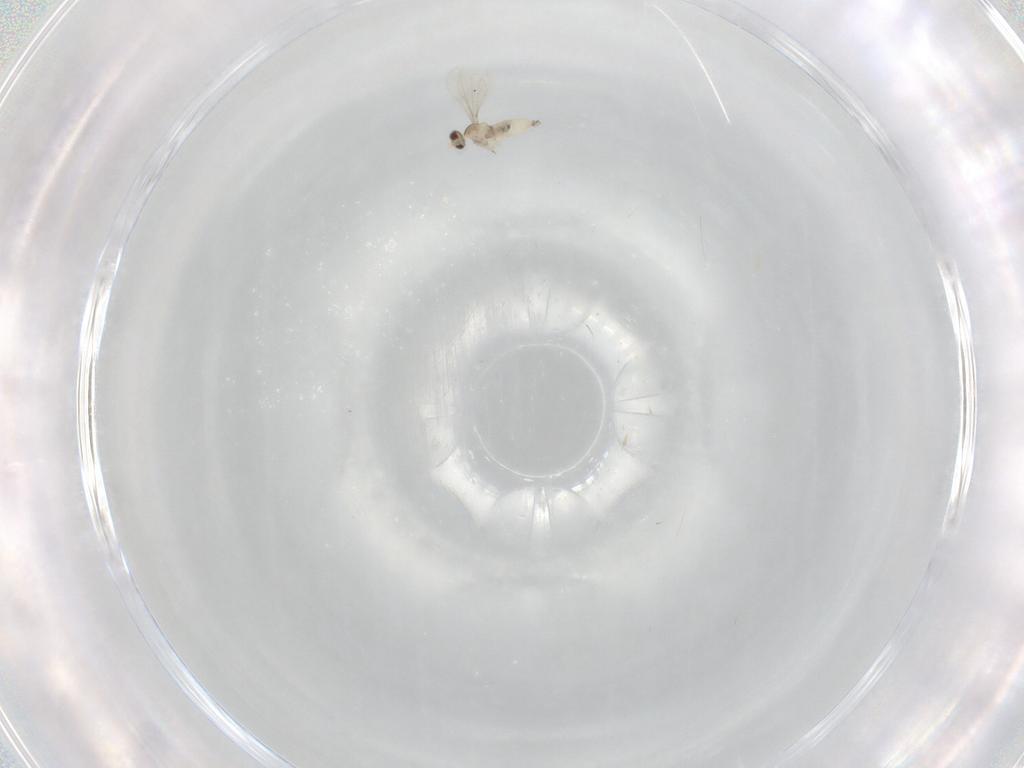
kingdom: Animalia
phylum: Arthropoda
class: Insecta
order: Diptera
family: Cecidomyiidae
